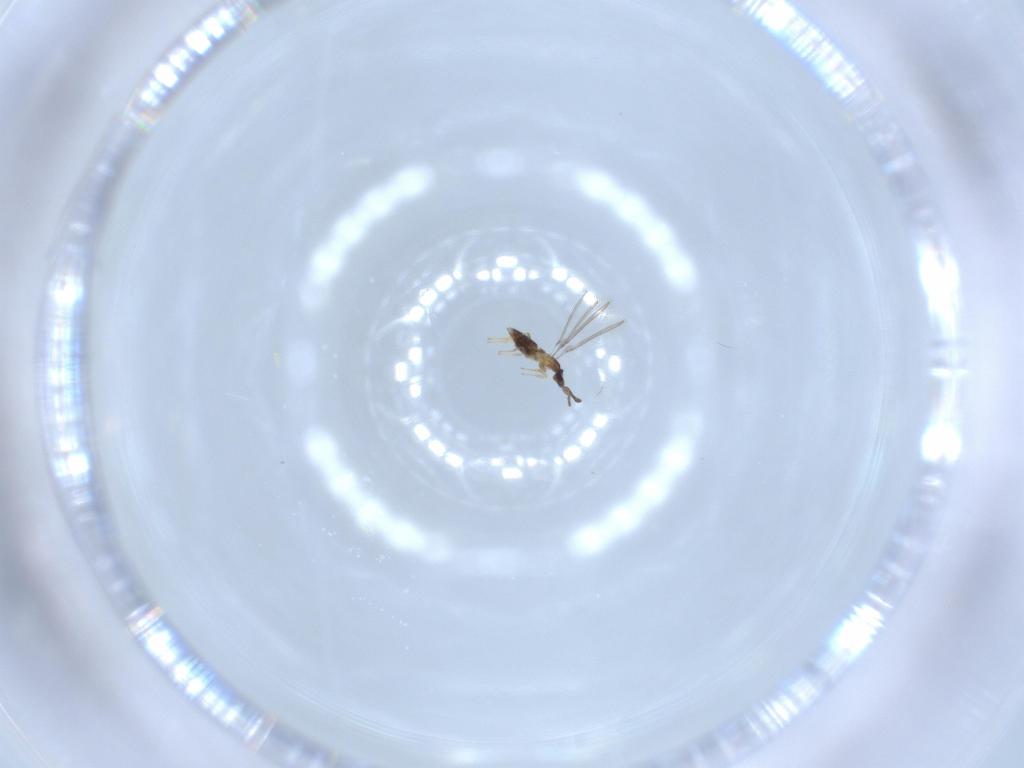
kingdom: Animalia
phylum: Arthropoda
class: Insecta
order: Hymenoptera
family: Mymaridae
